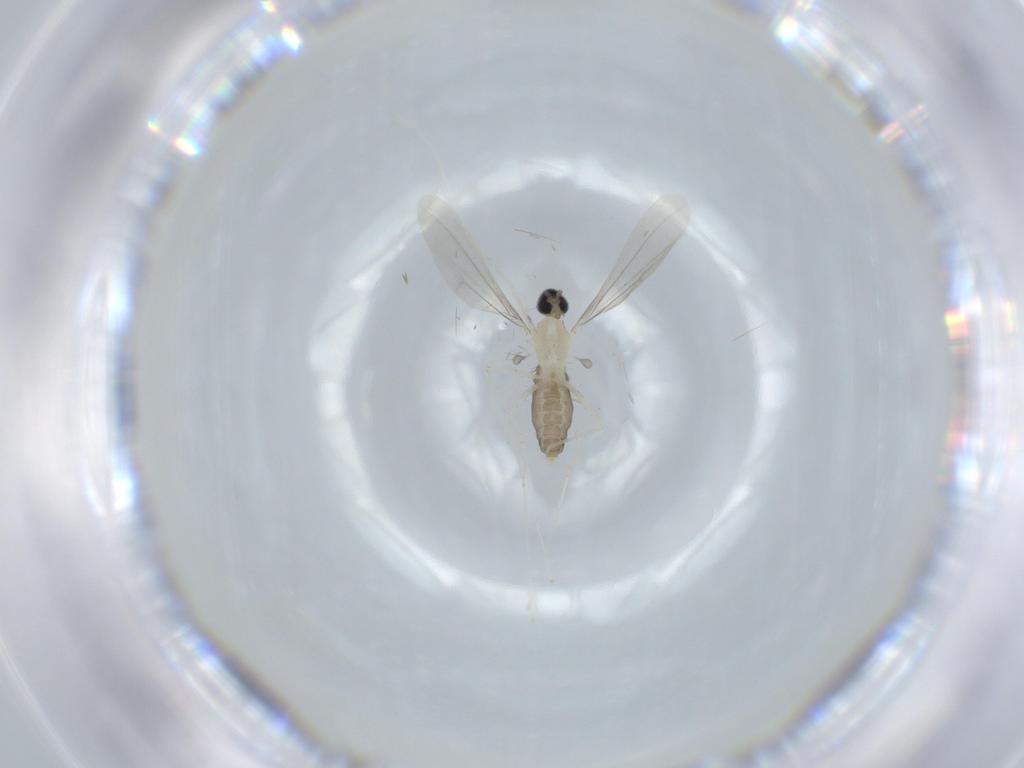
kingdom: Animalia
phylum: Arthropoda
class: Insecta
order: Diptera
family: Cecidomyiidae
